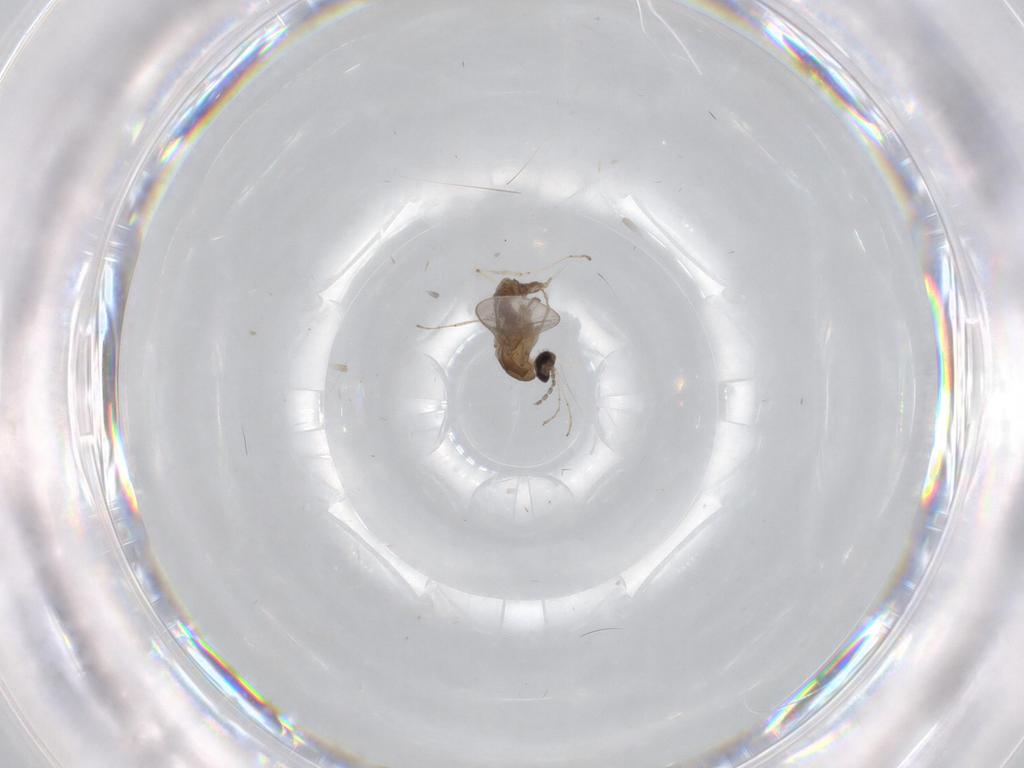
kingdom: Animalia
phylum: Arthropoda
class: Insecta
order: Diptera
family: Cecidomyiidae
